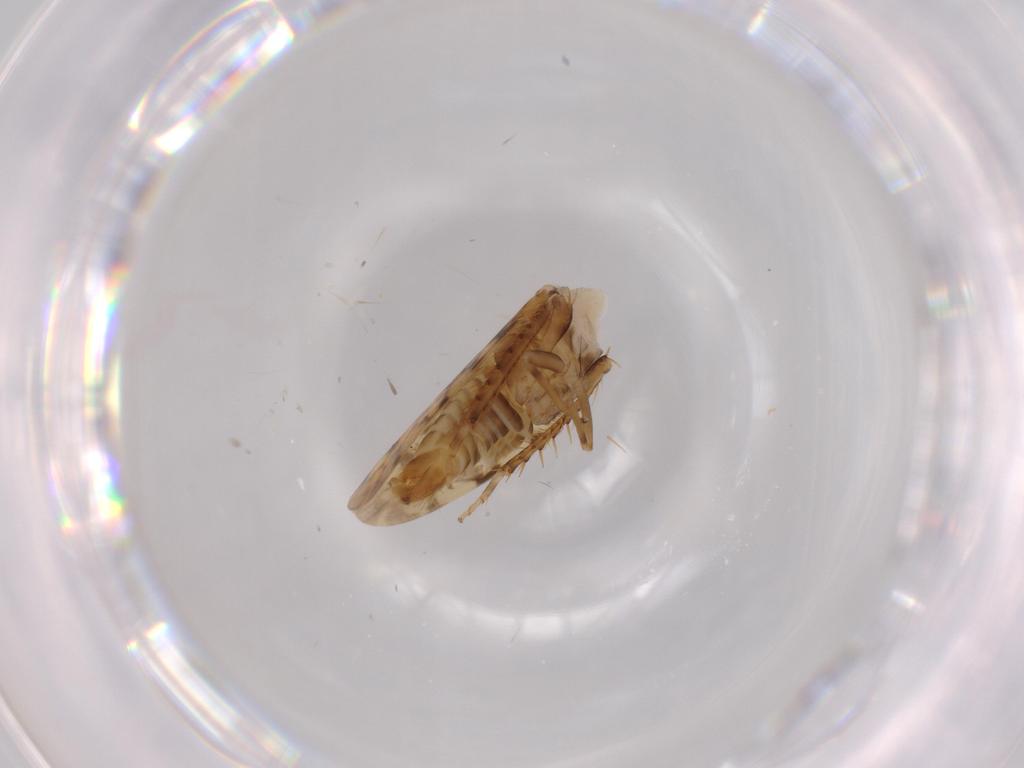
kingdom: Animalia
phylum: Arthropoda
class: Insecta
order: Hemiptera
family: Cicadellidae
